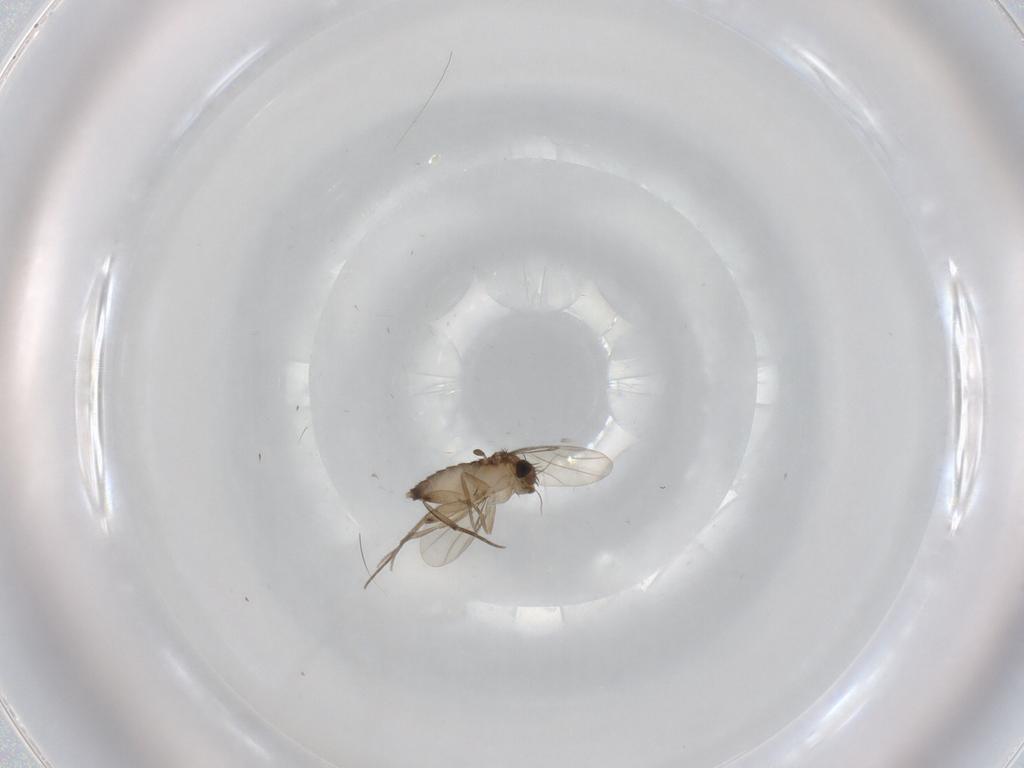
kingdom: Animalia
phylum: Arthropoda
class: Insecta
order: Diptera
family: Phoridae
